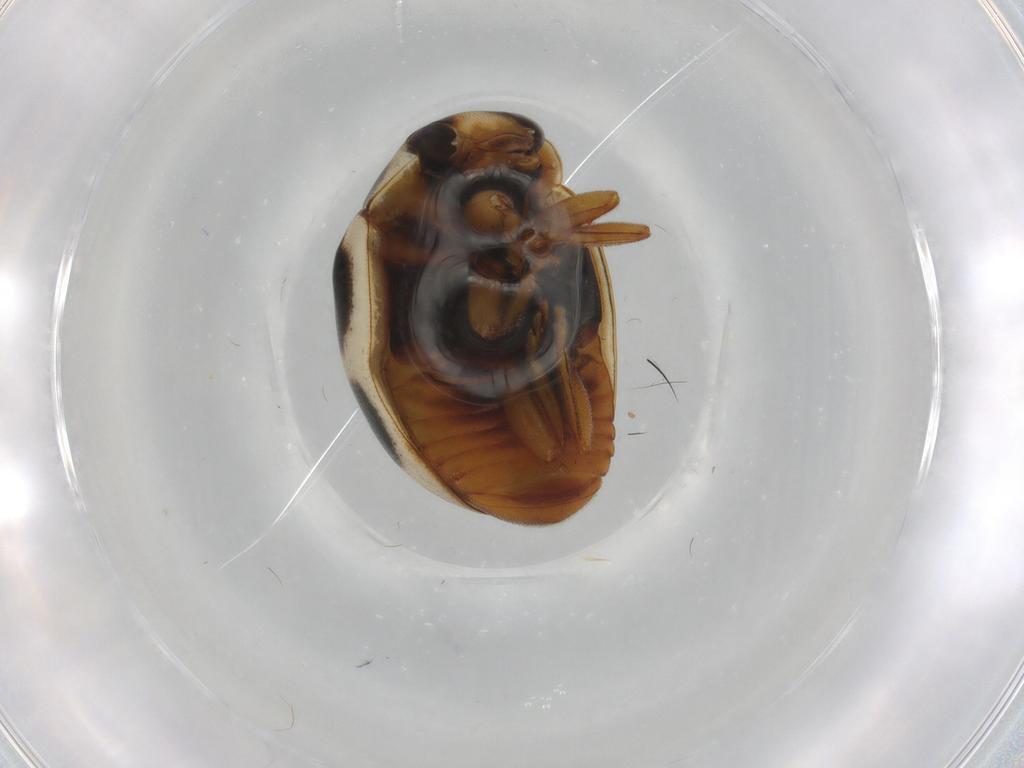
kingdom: Animalia
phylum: Arthropoda
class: Insecta
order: Coleoptera
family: Coccinellidae
